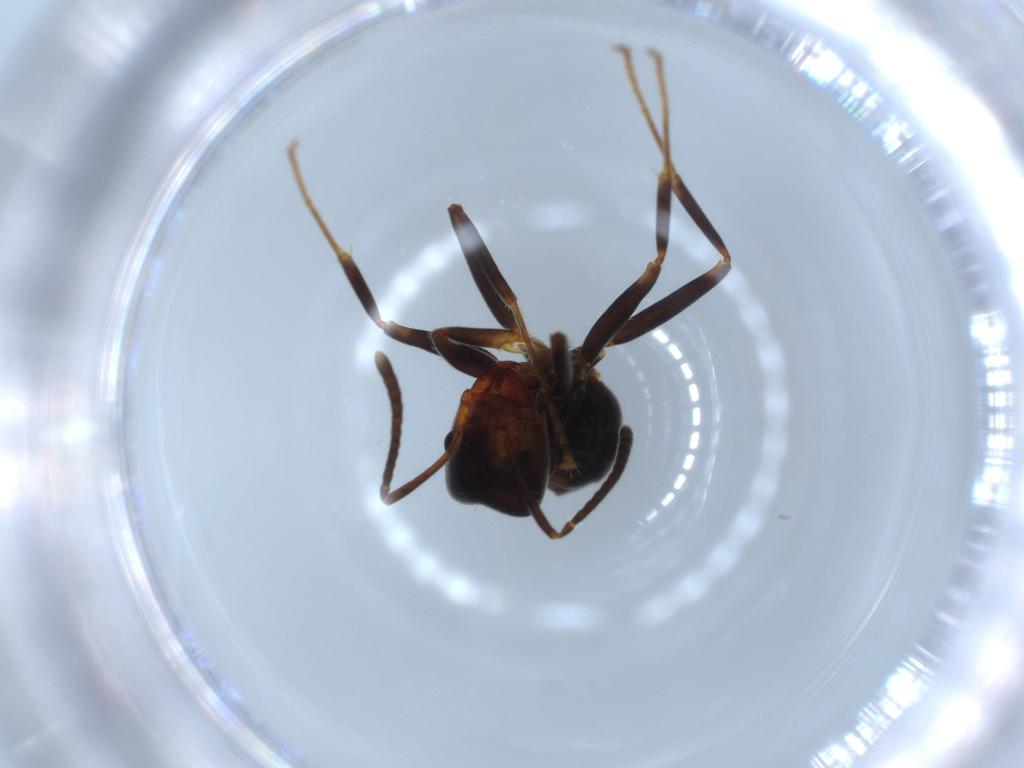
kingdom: Animalia
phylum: Arthropoda
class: Insecta
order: Hymenoptera
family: Formicidae
